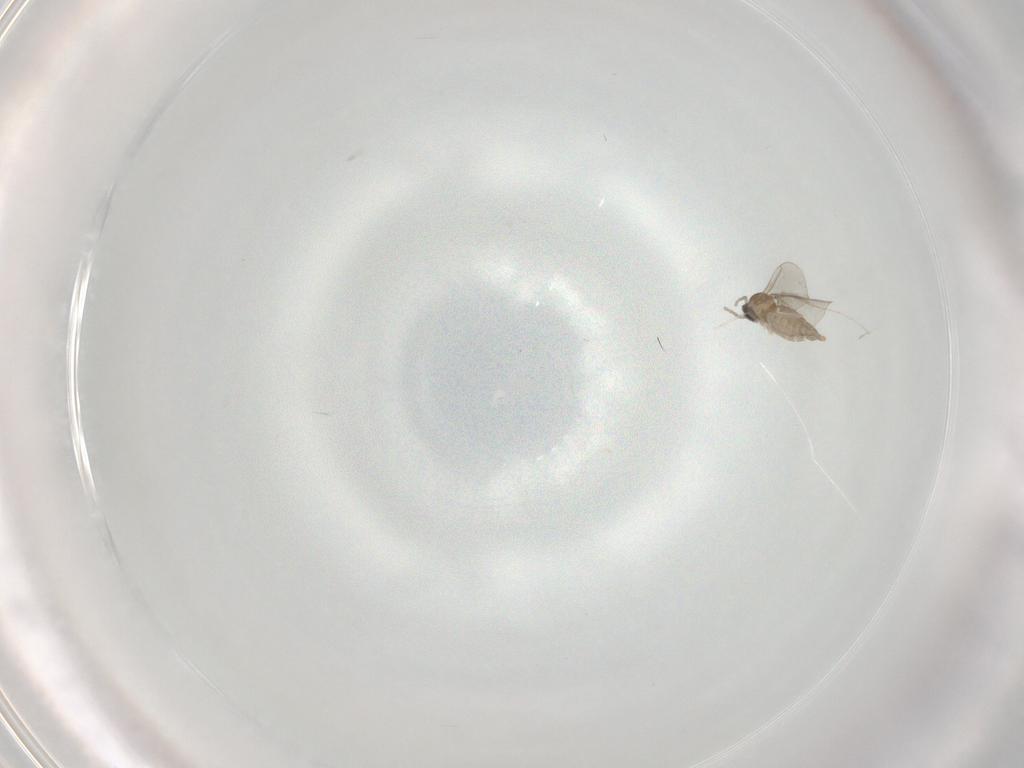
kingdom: Animalia
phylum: Arthropoda
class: Insecta
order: Diptera
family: Cecidomyiidae
